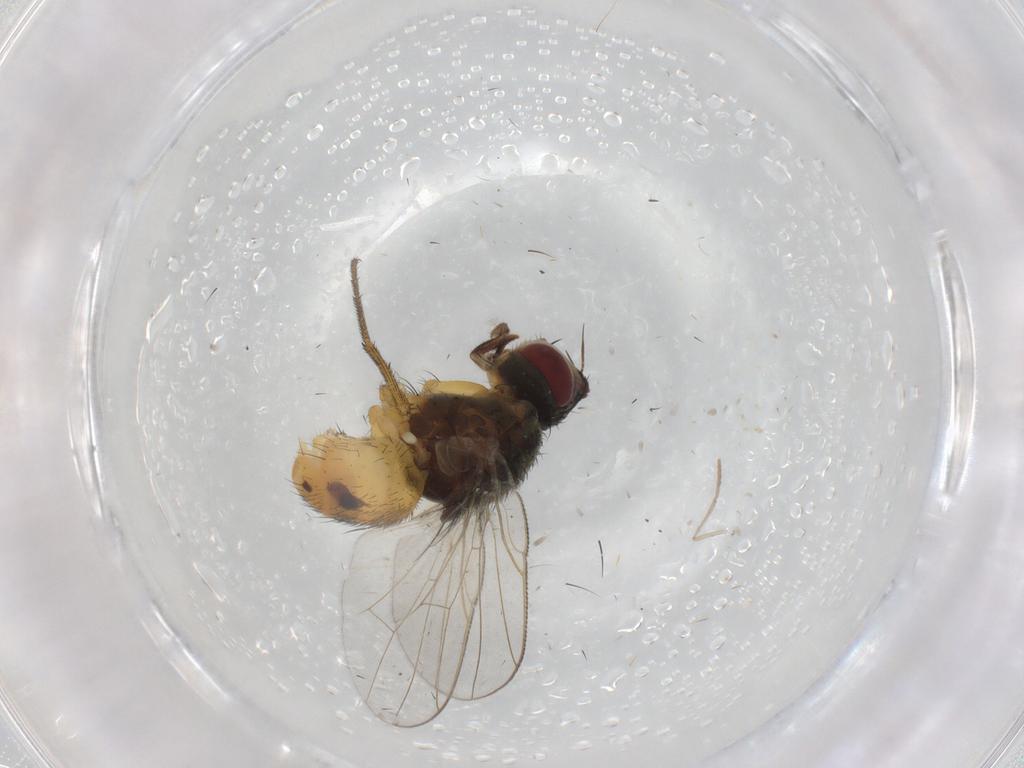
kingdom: Animalia
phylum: Arthropoda
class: Insecta
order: Diptera
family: Muscidae
